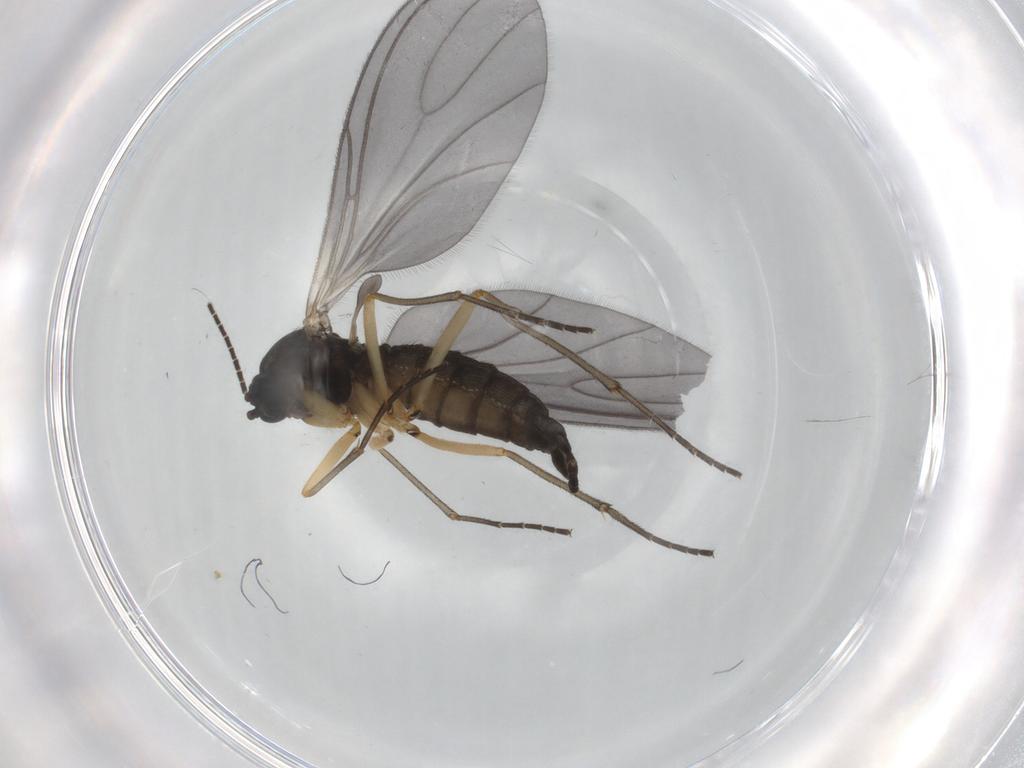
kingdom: Animalia
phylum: Arthropoda
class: Insecta
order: Diptera
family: Sciaridae
